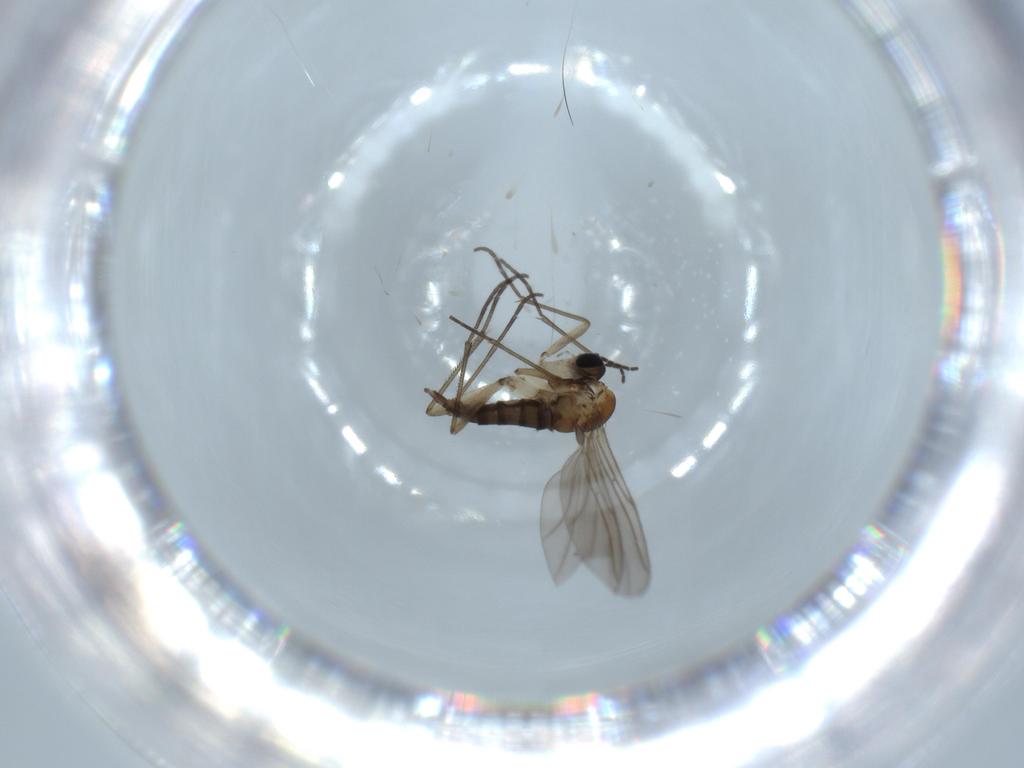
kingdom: Animalia
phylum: Arthropoda
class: Insecta
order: Diptera
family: Sciaridae
